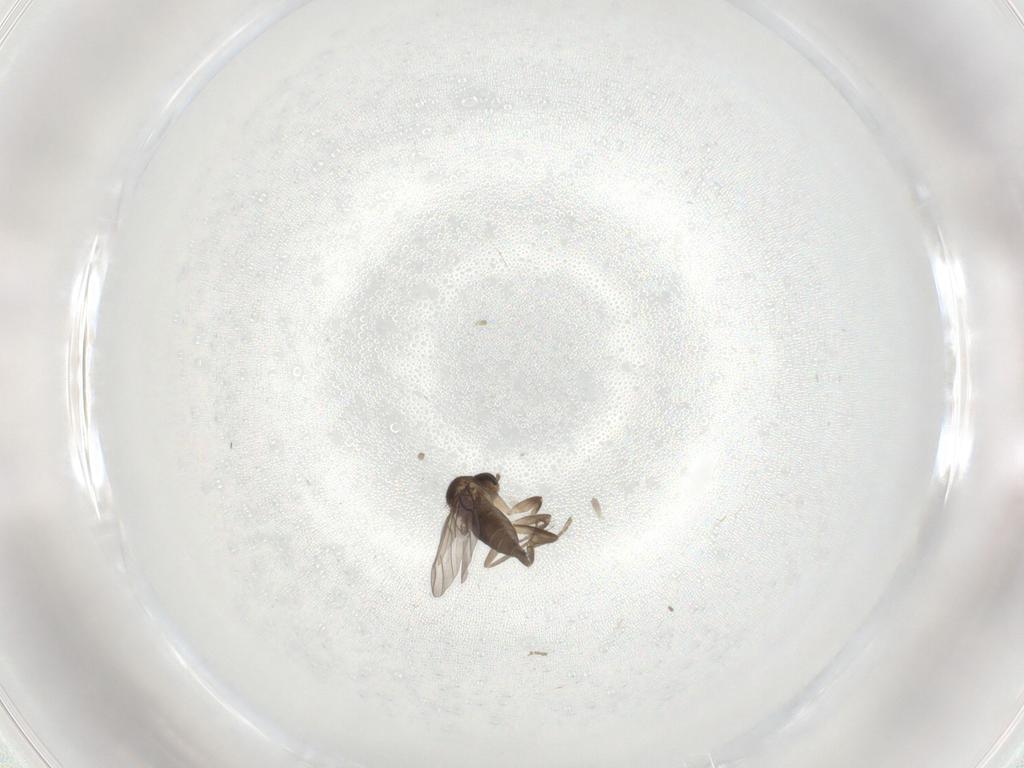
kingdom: Animalia
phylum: Arthropoda
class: Insecta
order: Diptera
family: Chironomidae
